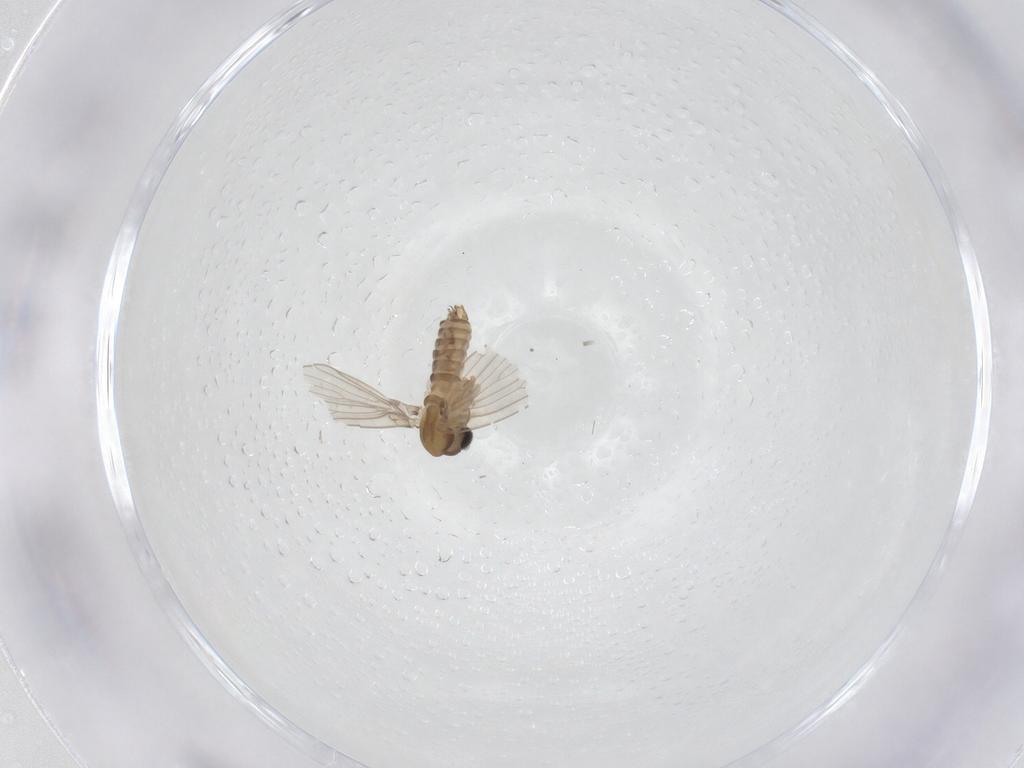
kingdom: Animalia
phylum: Arthropoda
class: Insecta
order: Diptera
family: Psychodidae
